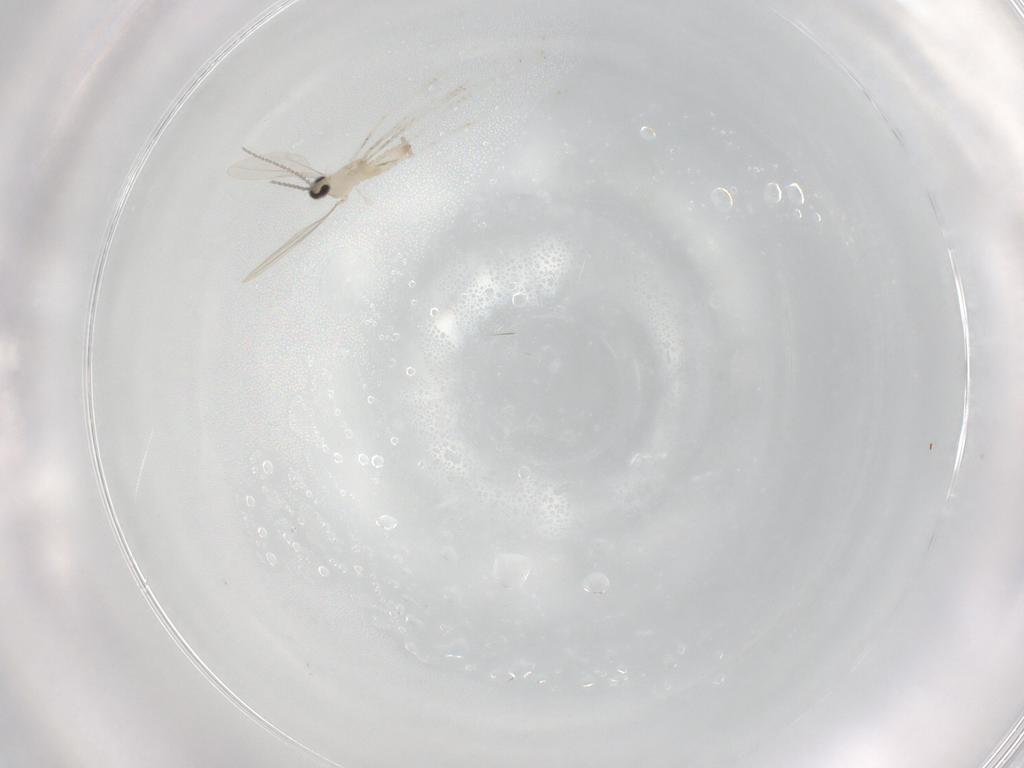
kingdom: Animalia
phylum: Arthropoda
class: Insecta
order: Diptera
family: Cecidomyiidae
